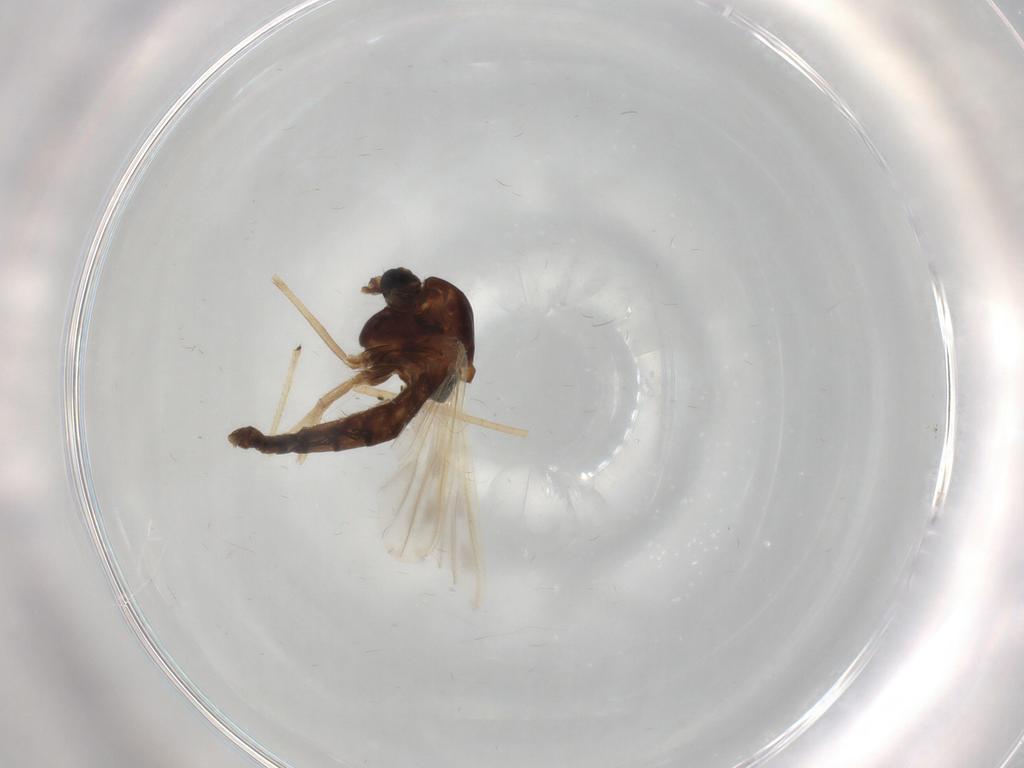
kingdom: Animalia
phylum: Arthropoda
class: Insecta
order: Diptera
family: Chironomidae
